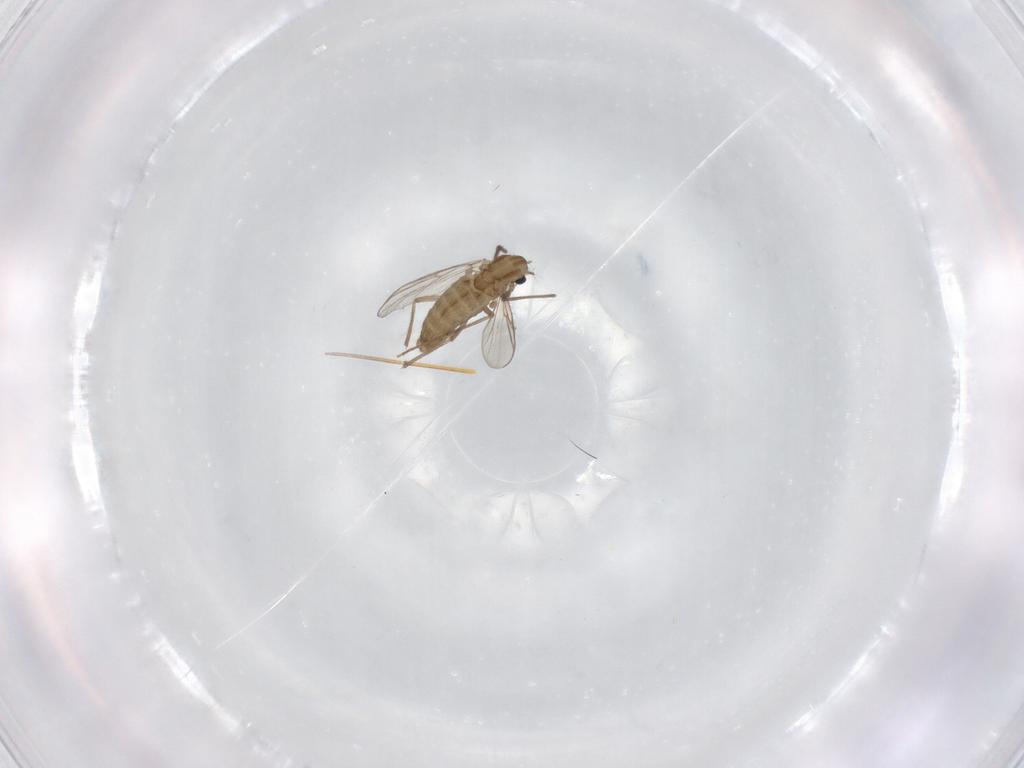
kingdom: Animalia
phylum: Arthropoda
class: Insecta
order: Diptera
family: Chironomidae
